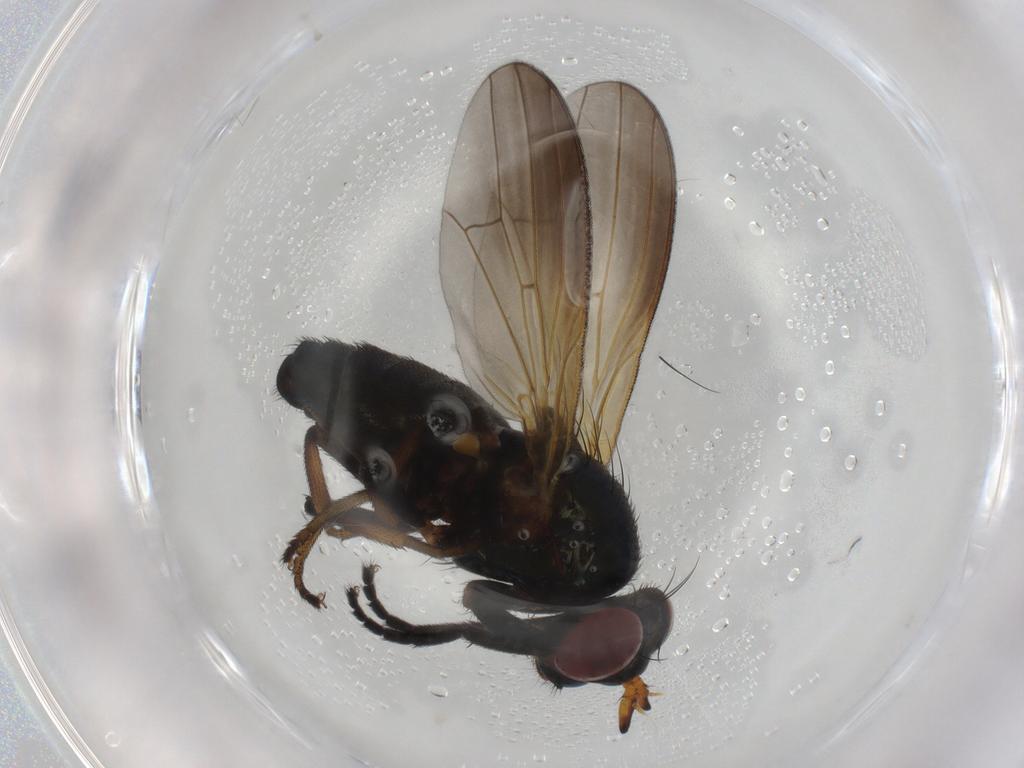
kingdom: Animalia
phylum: Arthropoda
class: Insecta
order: Diptera
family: Lauxaniidae
